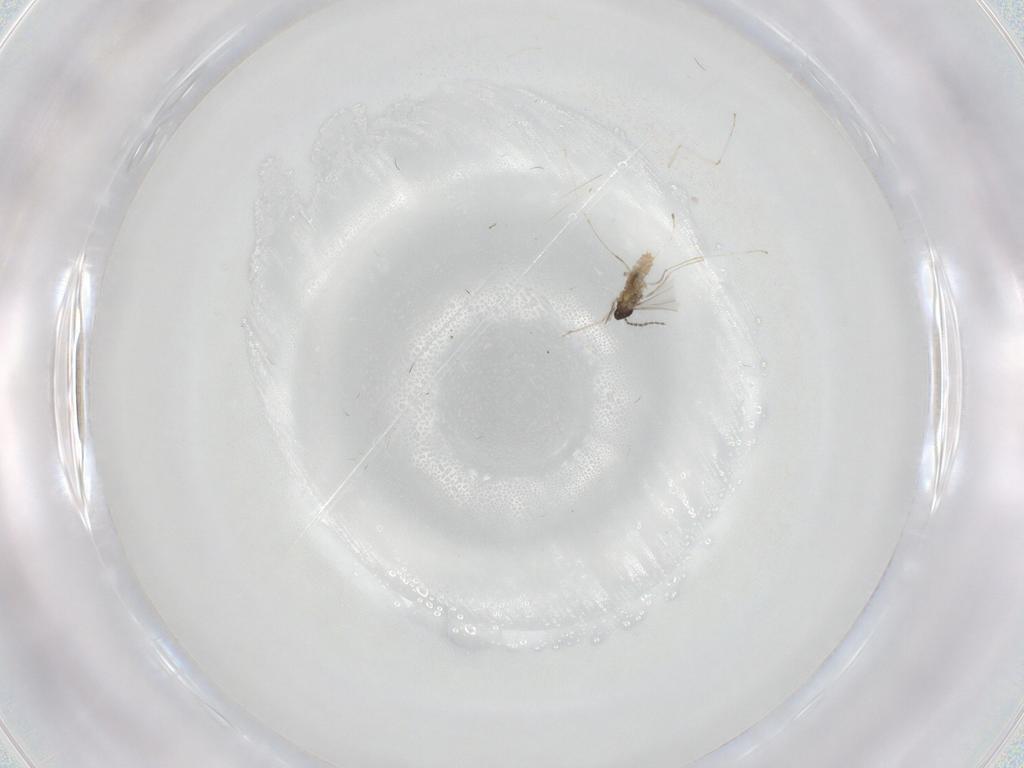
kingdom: Animalia
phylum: Arthropoda
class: Insecta
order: Diptera
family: Cecidomyiidae
